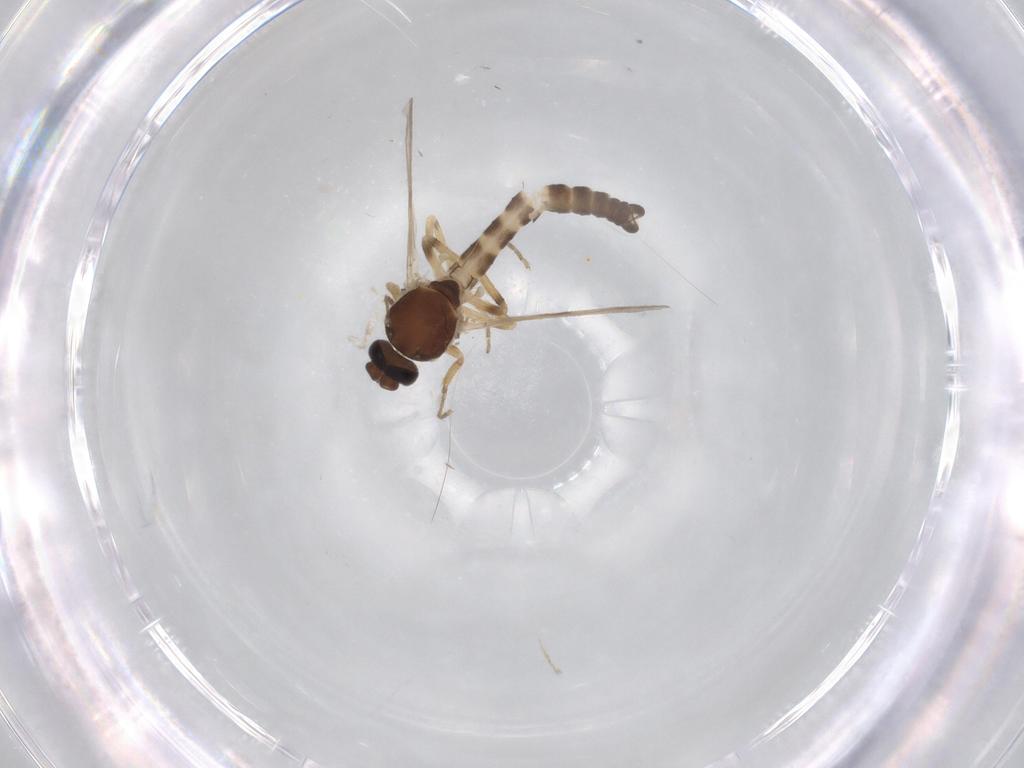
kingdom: Animalia
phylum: Arthropoda
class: Insecta
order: Diptera
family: Ceratopogonidae
